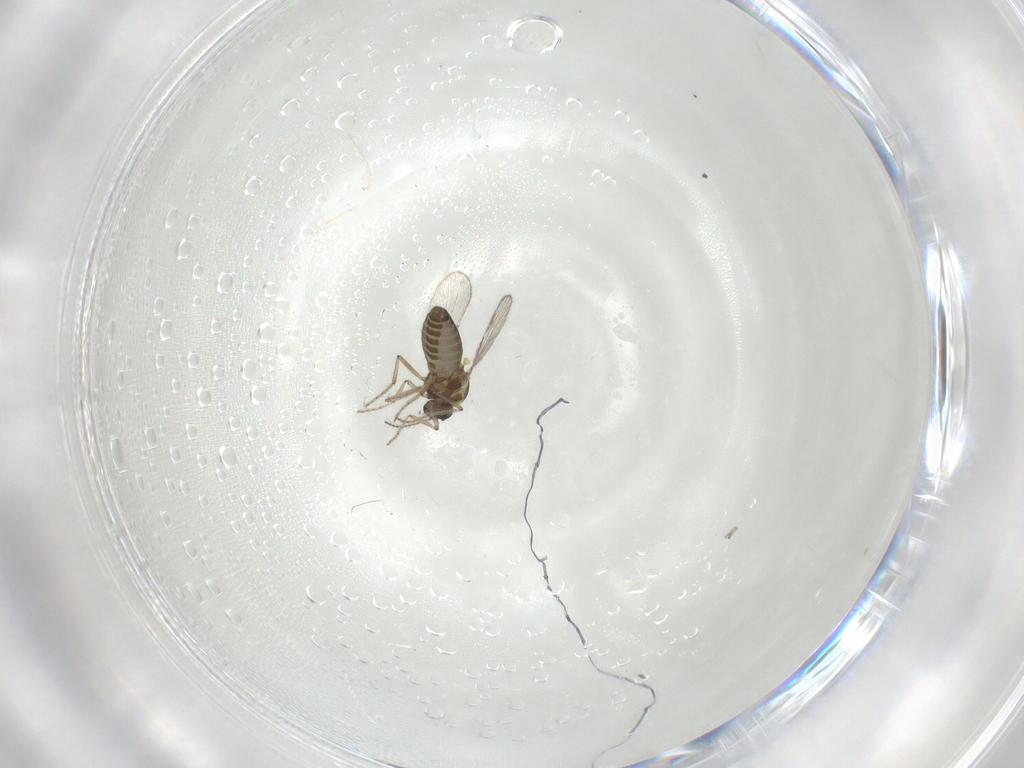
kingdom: Animalia
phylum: Arthropoda
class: Insecta
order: Diptera
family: Ceratopogonidae
